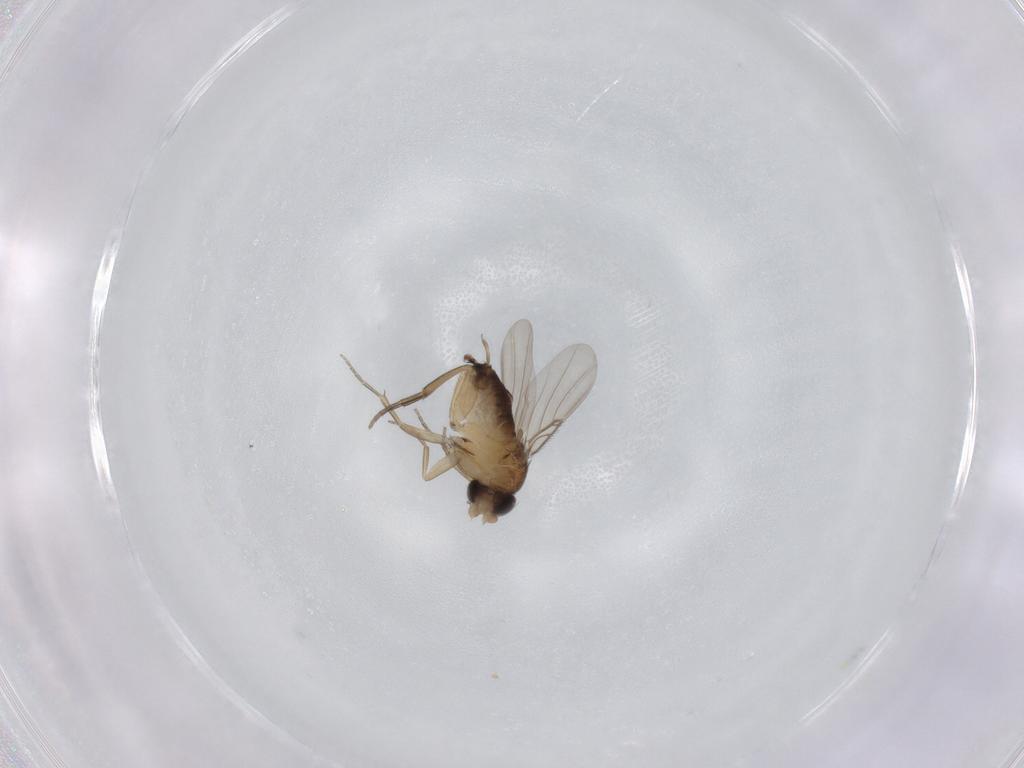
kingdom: Animalia
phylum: Arthropoda
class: Insecta
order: Diptera
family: Phoridae
